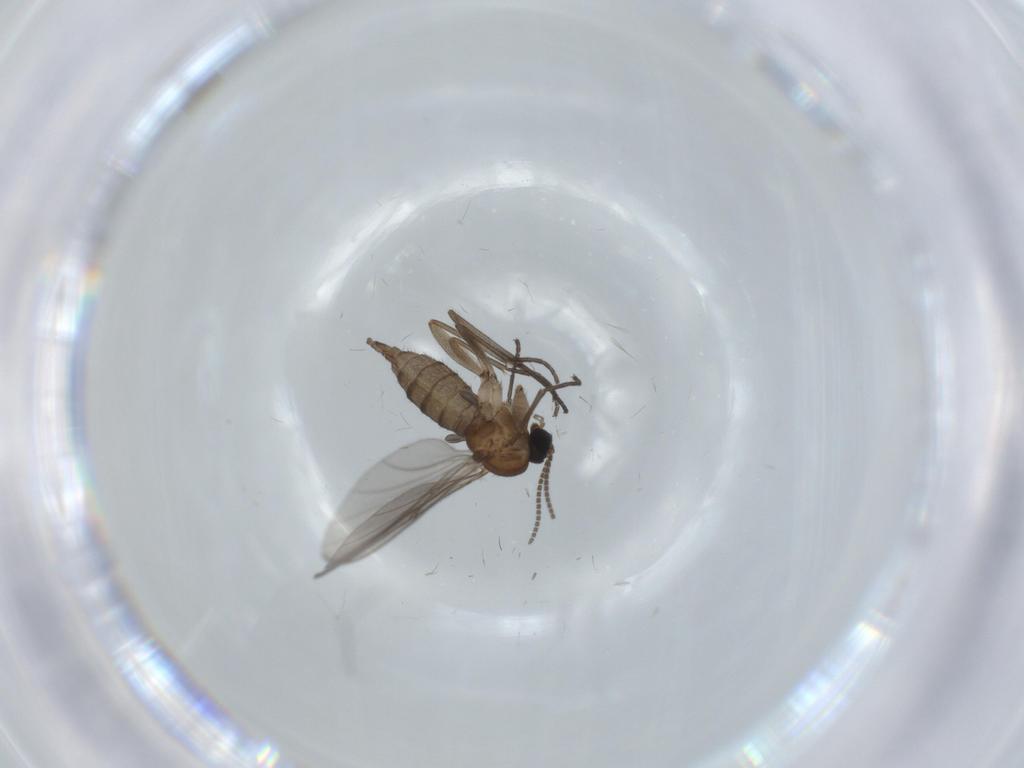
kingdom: Animalia
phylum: Arthropoda
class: Insecta
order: Diptera
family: Sciaridae
